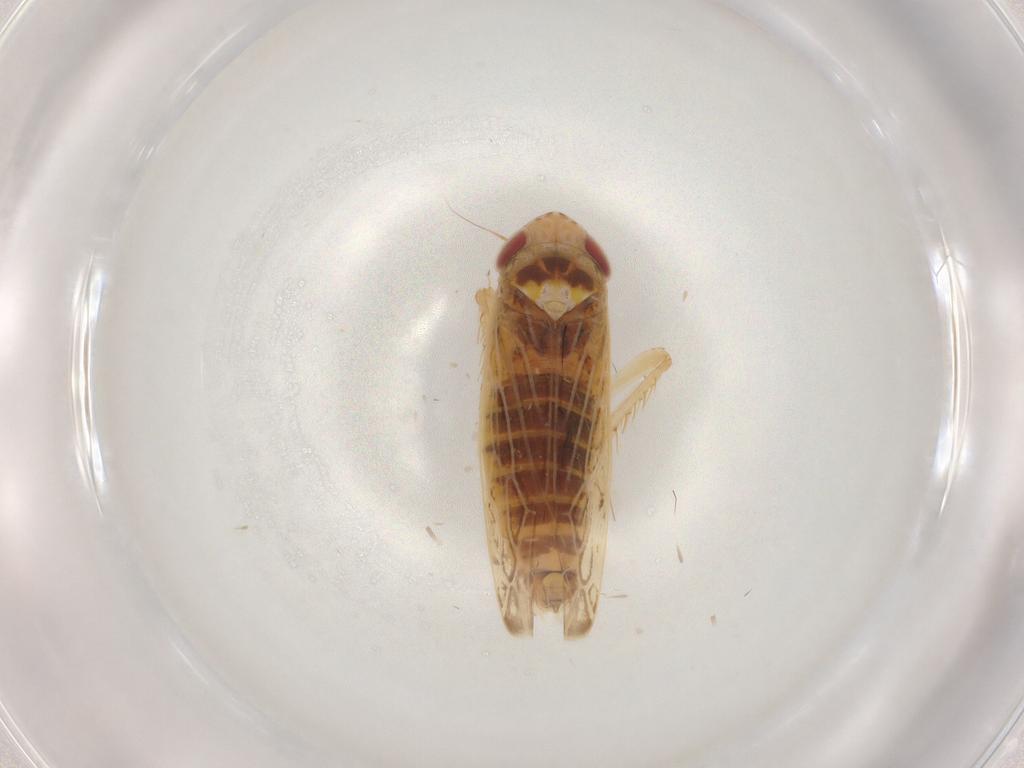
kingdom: Animalia
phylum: Arthropoda
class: Insecta
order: Hemiptera
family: Cicadellidae
